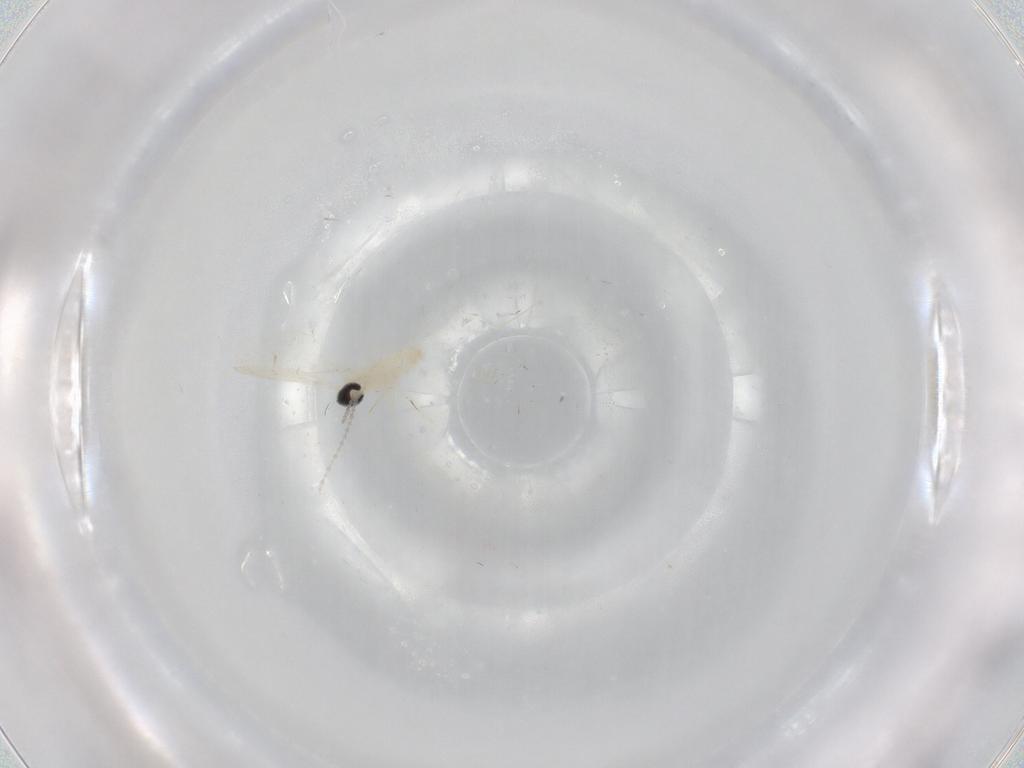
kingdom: Animalia
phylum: Arthropoda
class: Insecta
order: Diptera
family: Cecidomyiidae
